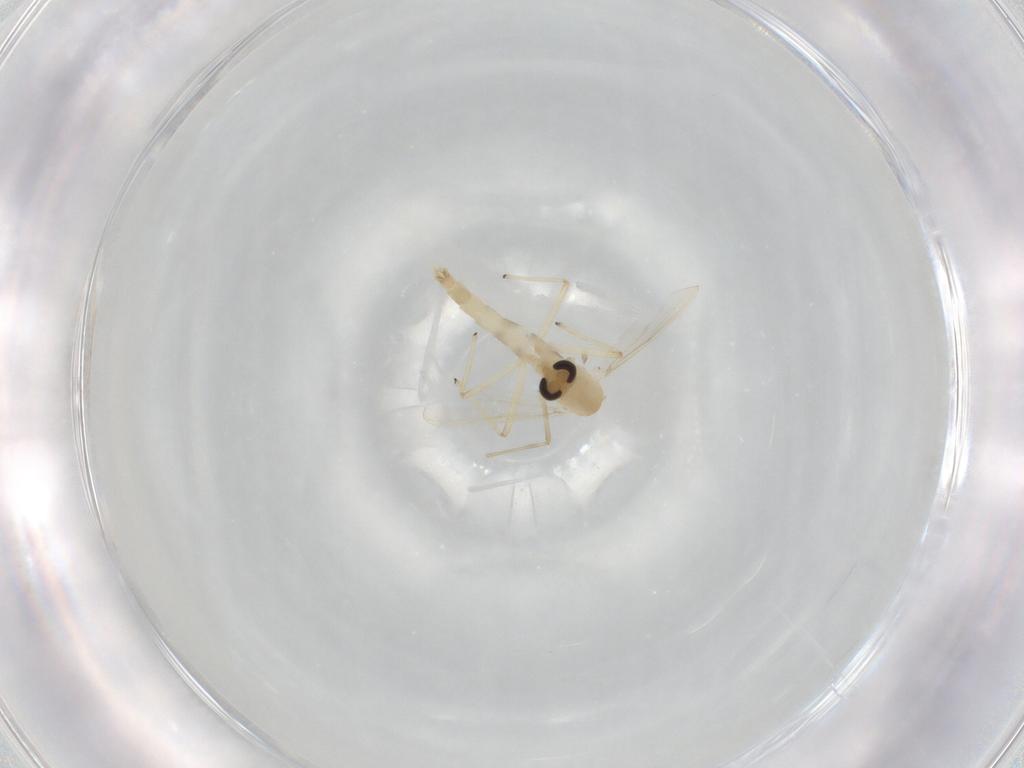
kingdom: Animalia
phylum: Arthropoda
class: Insecta
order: Diptera
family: Chironomidae
